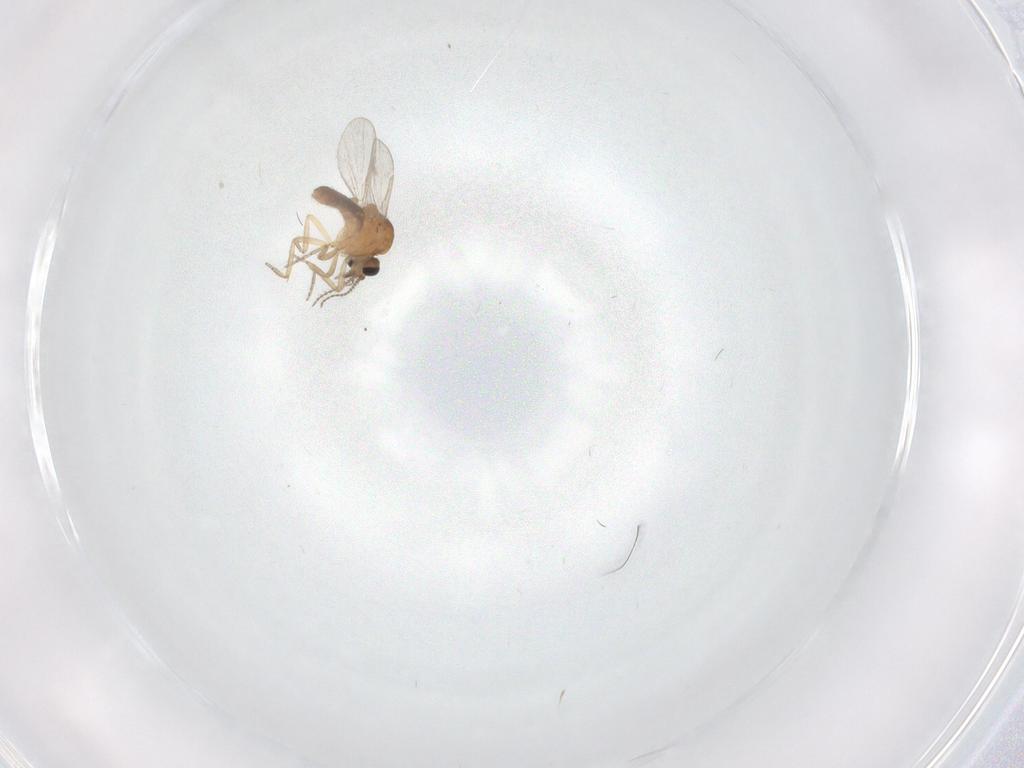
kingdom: Animalia
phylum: Arthropoda
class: Insecta
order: Diptera
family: Ceratopogonidae
